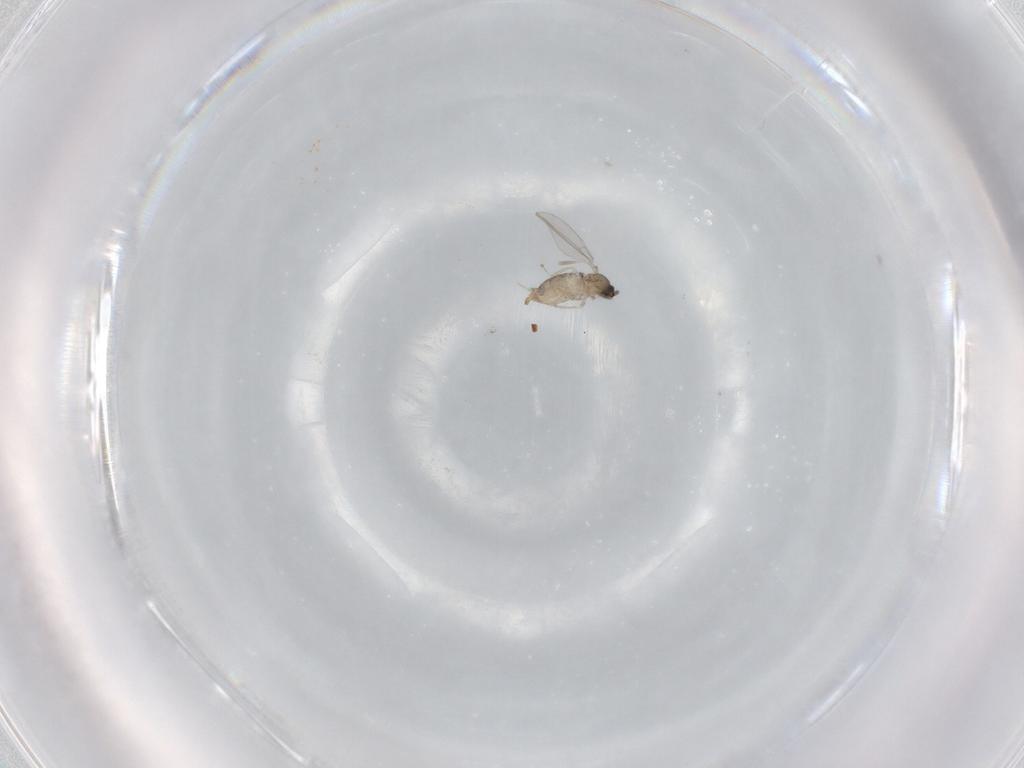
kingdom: Animalia
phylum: Arthropoda
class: Insecta
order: Diptera
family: Cecidomyiidae
